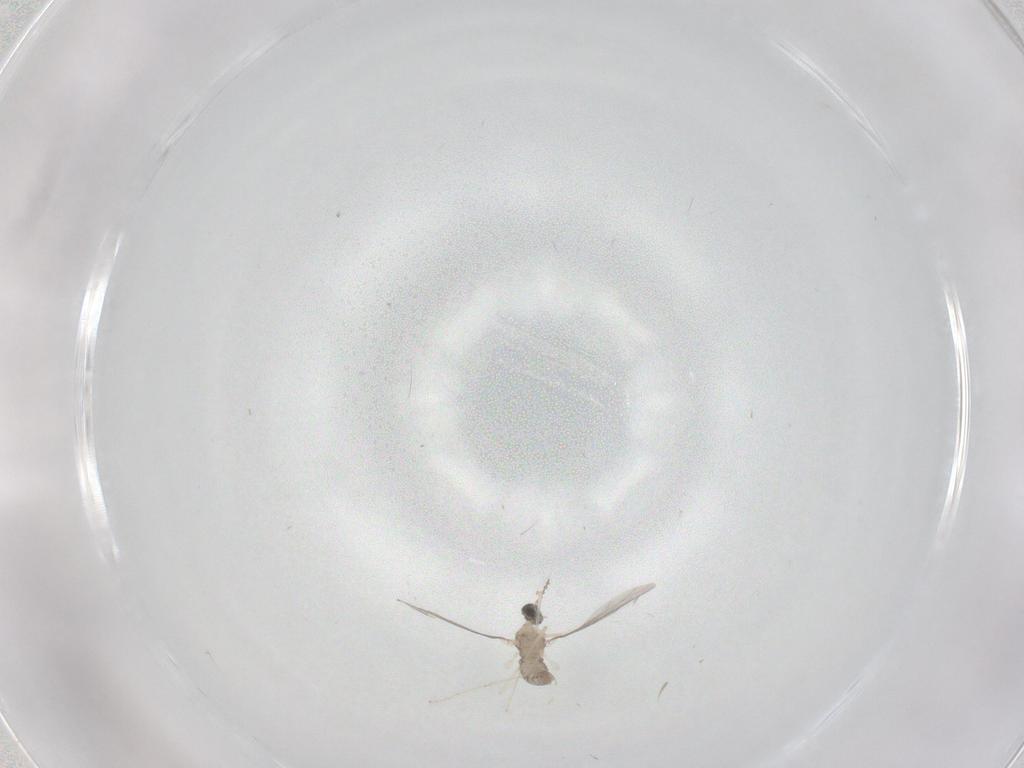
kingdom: Animalia
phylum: Arthropoda
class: Insecta
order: Diptera
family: Cecidomyiidae
